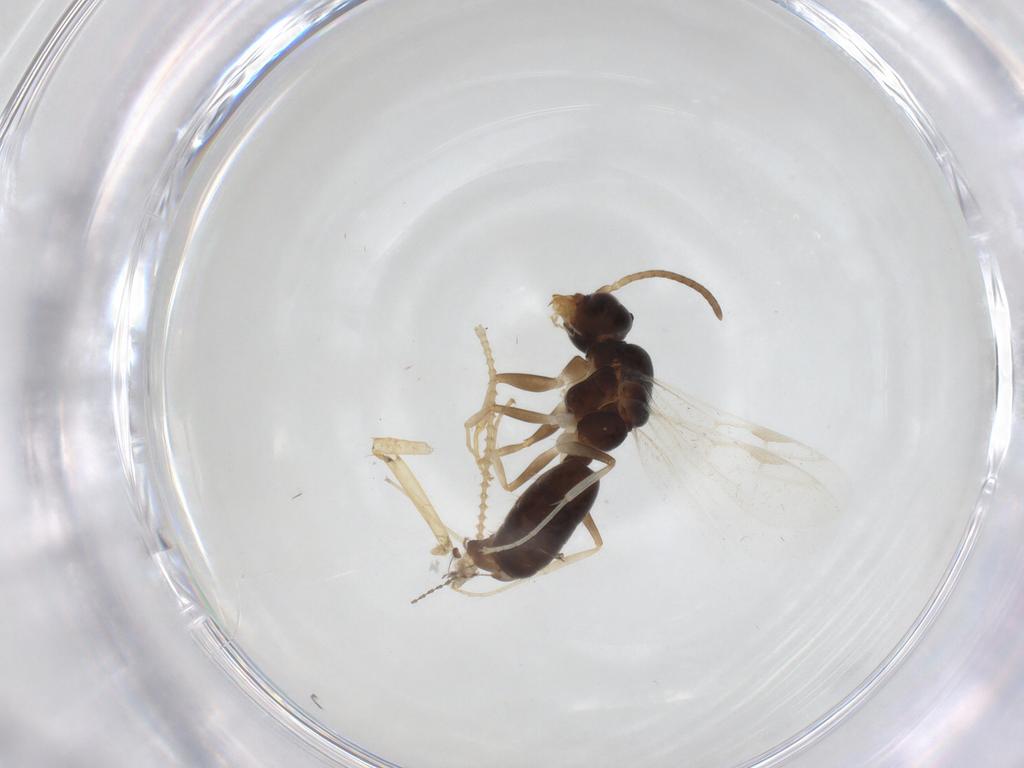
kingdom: Animalia
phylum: Arthropoda
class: Insecta
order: Hymenoptera
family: Formicidae
